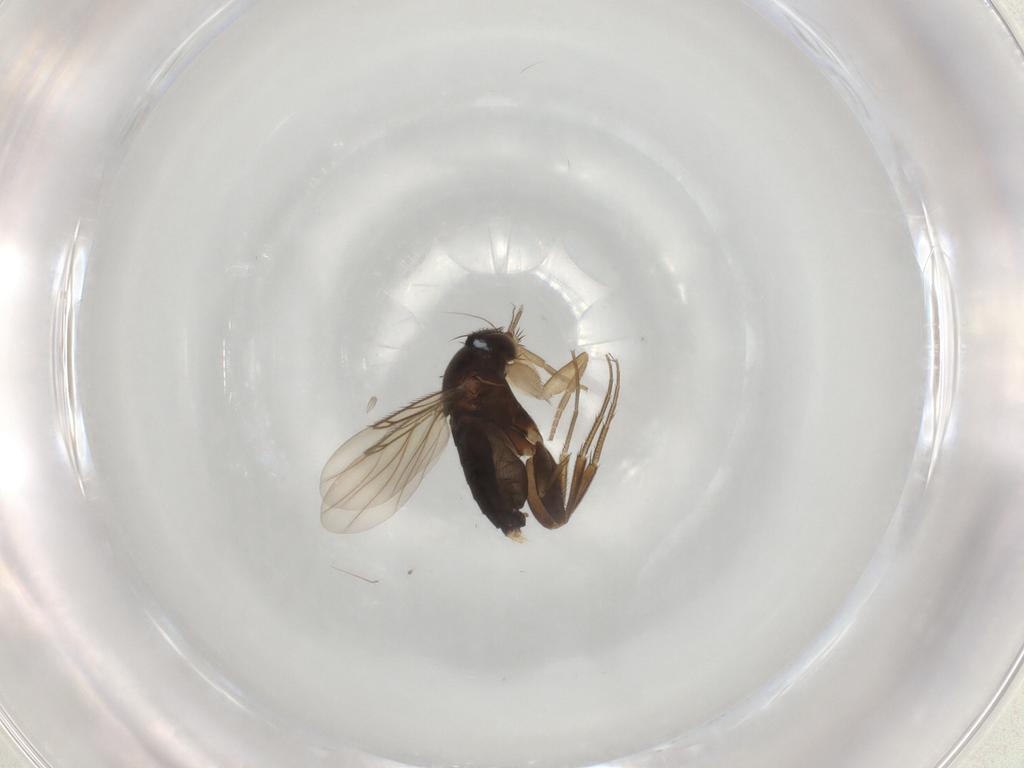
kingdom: Animalia
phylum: Arthropoda
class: Insecta
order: Diptera
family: Phoridae
